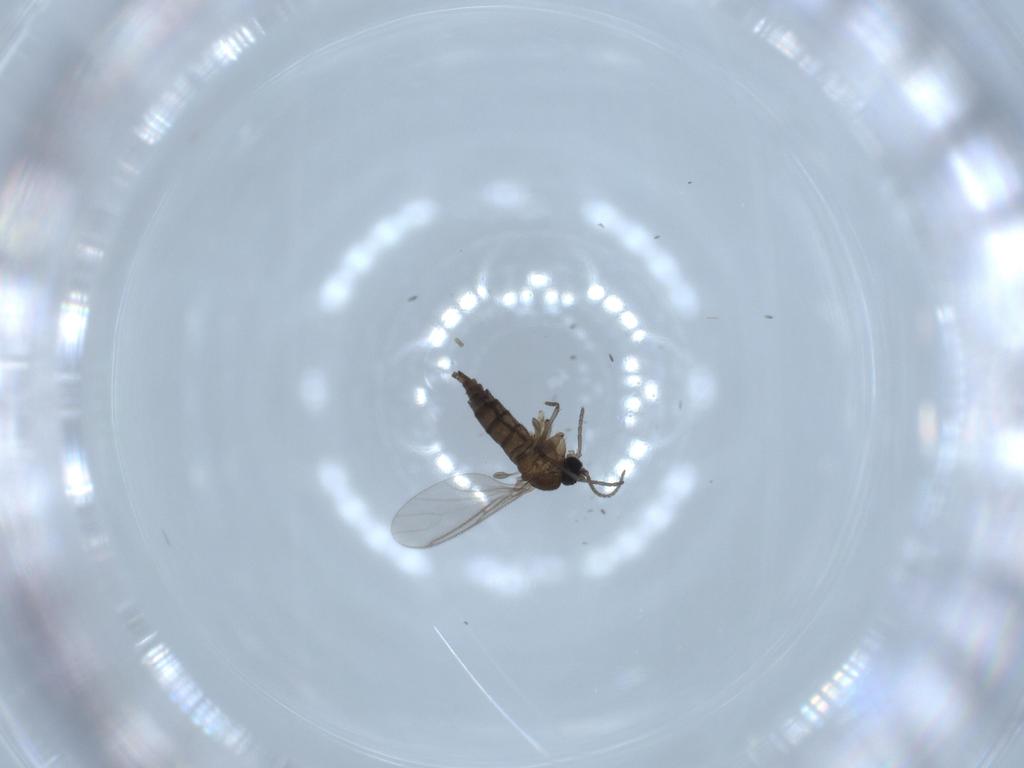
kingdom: Animalia
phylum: Arthropoda
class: Insecta
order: Diptera
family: Sciaridae
